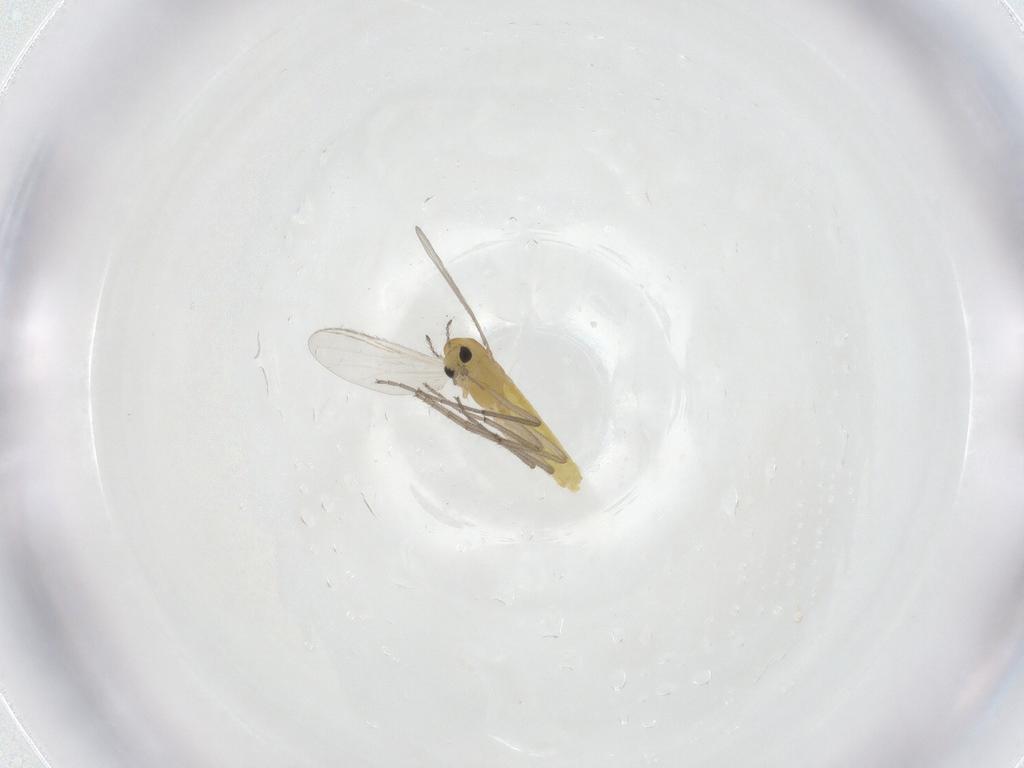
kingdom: Animalia
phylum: Arthropoda
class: Insecta
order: Diptera
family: Chironomidae
